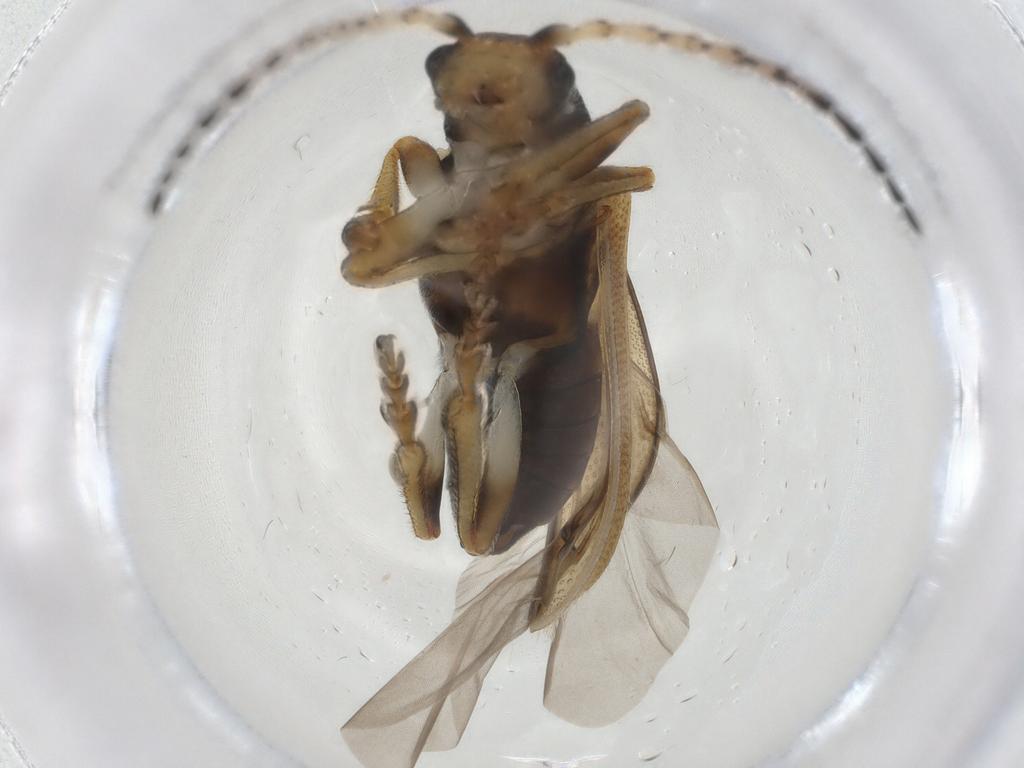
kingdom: Animalia
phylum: Arthropoda
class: Insecta
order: Coleoptera
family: Chrysomelidae
